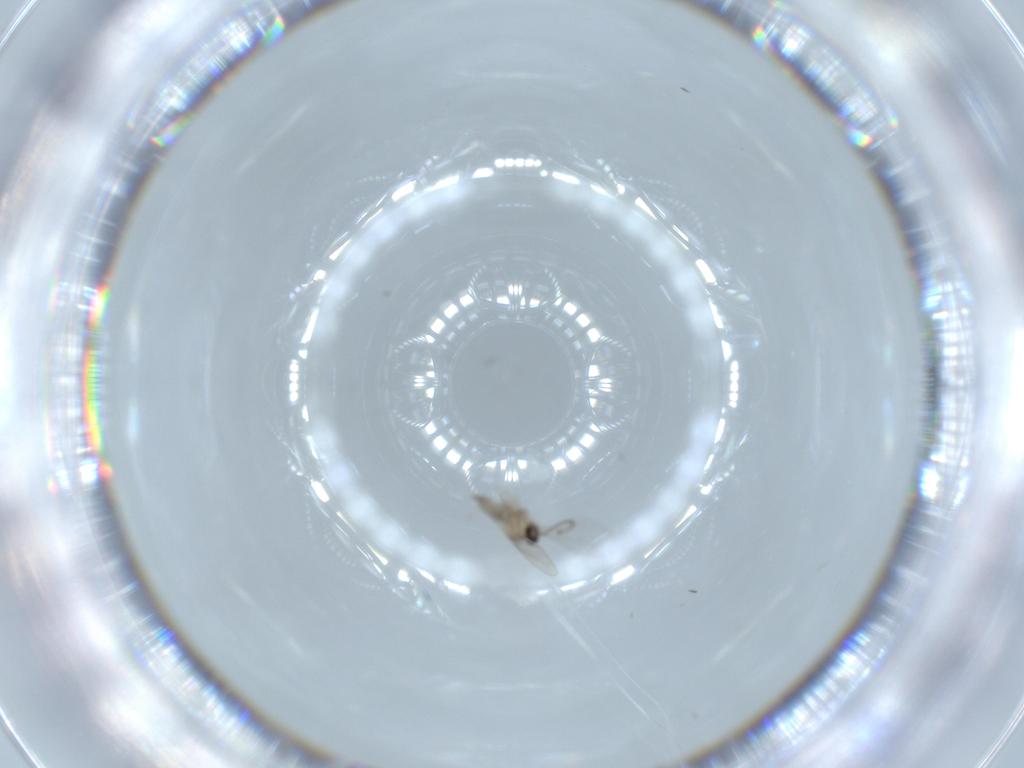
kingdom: Animalia
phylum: Arthropoda
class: Insecta
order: Diptera
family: Cecidomyiidae
